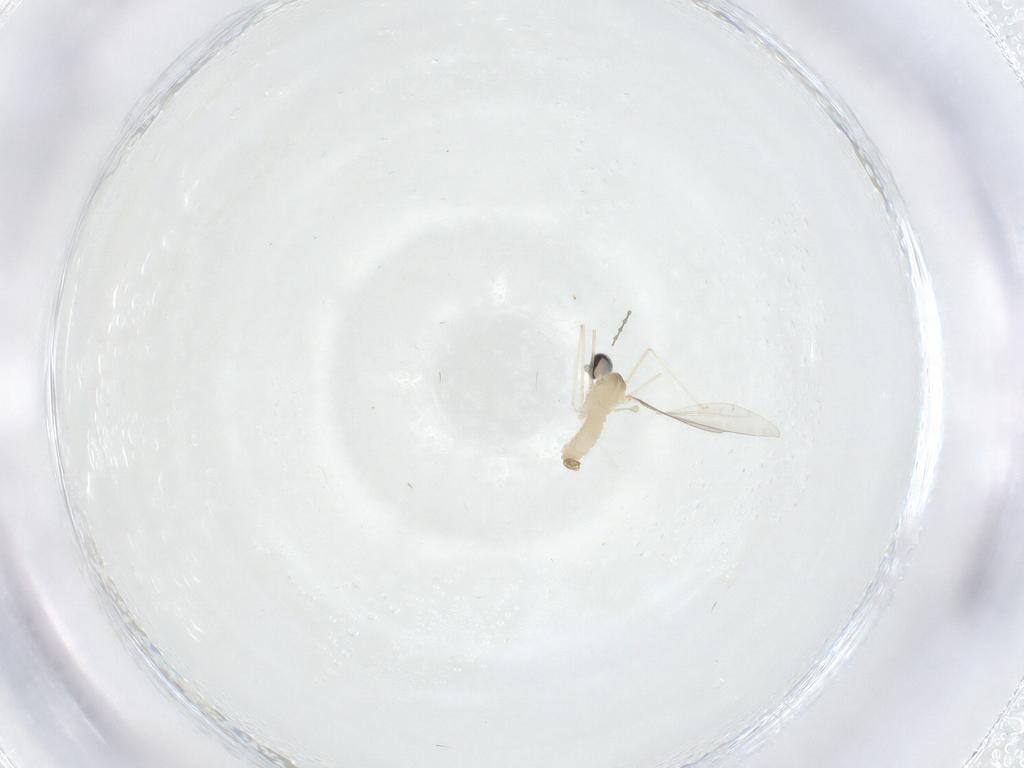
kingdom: Animalia
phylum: Arthropoda
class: Insecta
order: Diptera
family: Cecidomyiidae
